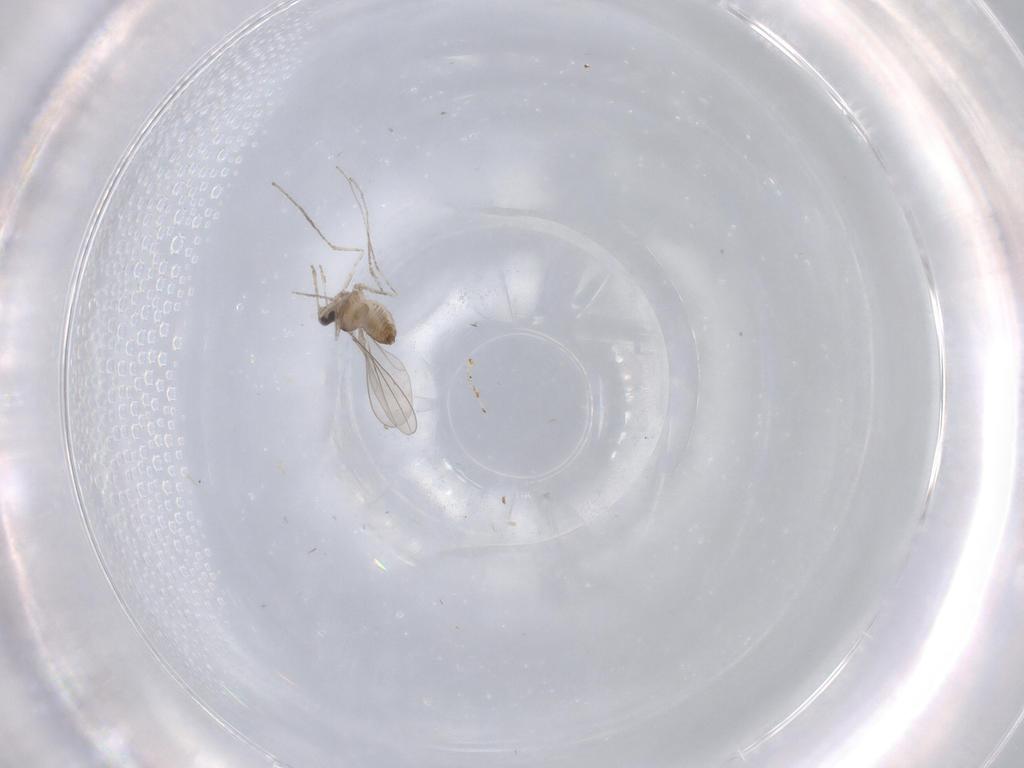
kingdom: Animalia
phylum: Arthropoda
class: Insecta
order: Diptera
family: Cecidomyiidae
